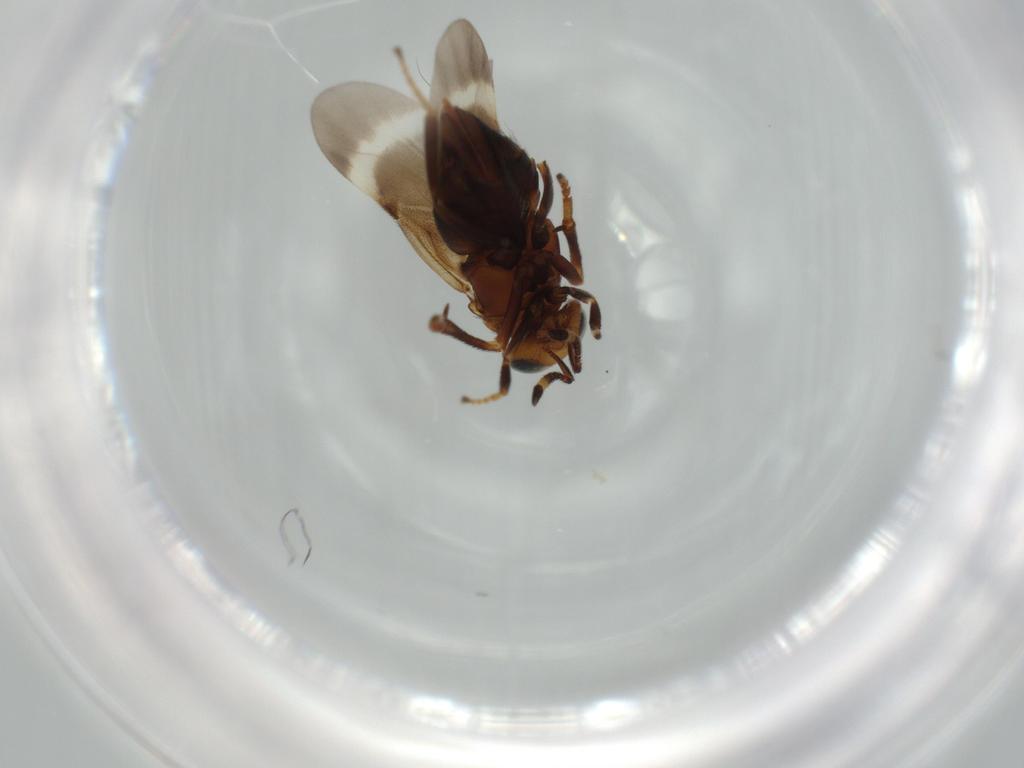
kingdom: Animalia
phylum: Arthropoda
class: Insecta
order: Hymenoptera
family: Encyrtidae
